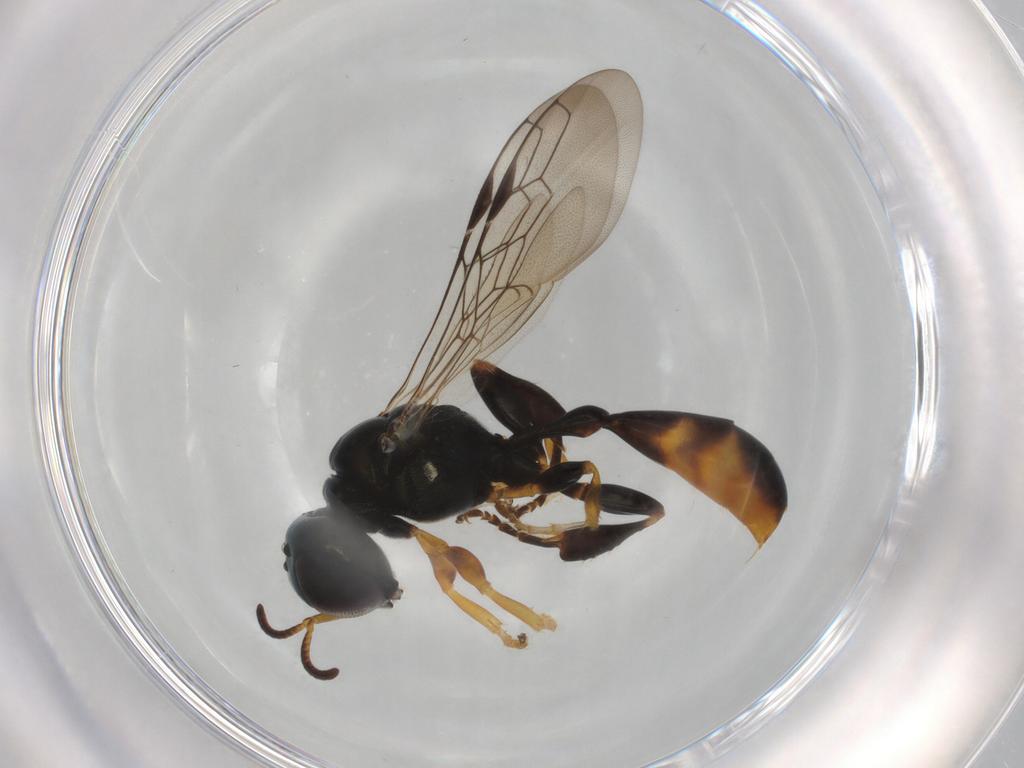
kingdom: Animalia
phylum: Arthropoda
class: Insecta
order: Hymenoptera
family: Crabronidae
